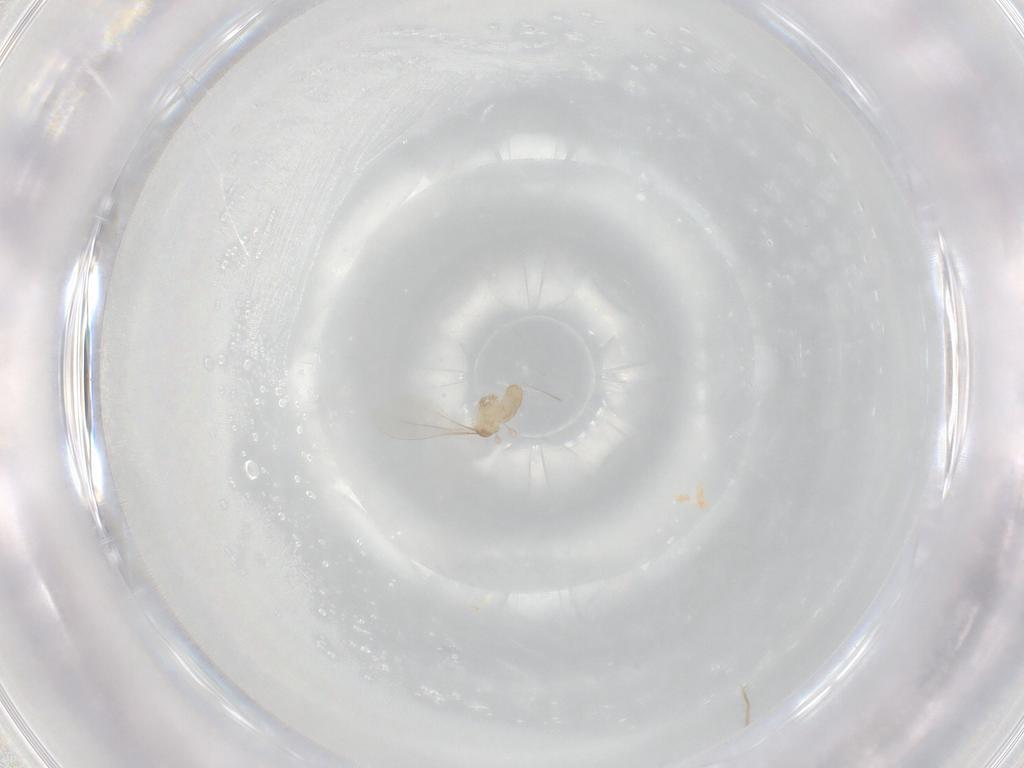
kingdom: Animalia
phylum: Arthropoda
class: Insecta
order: Diptera
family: Cecidomyiidae
